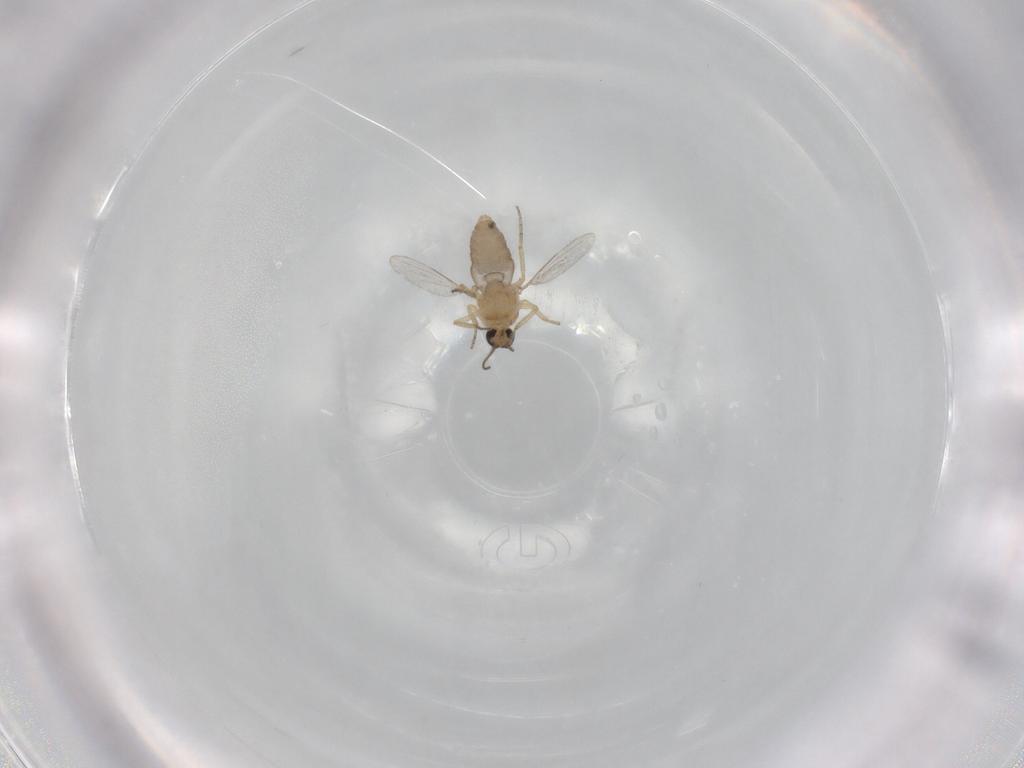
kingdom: Animalia
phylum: Arthropoda
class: Insecta
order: Diptera
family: Ceratopogonidae
